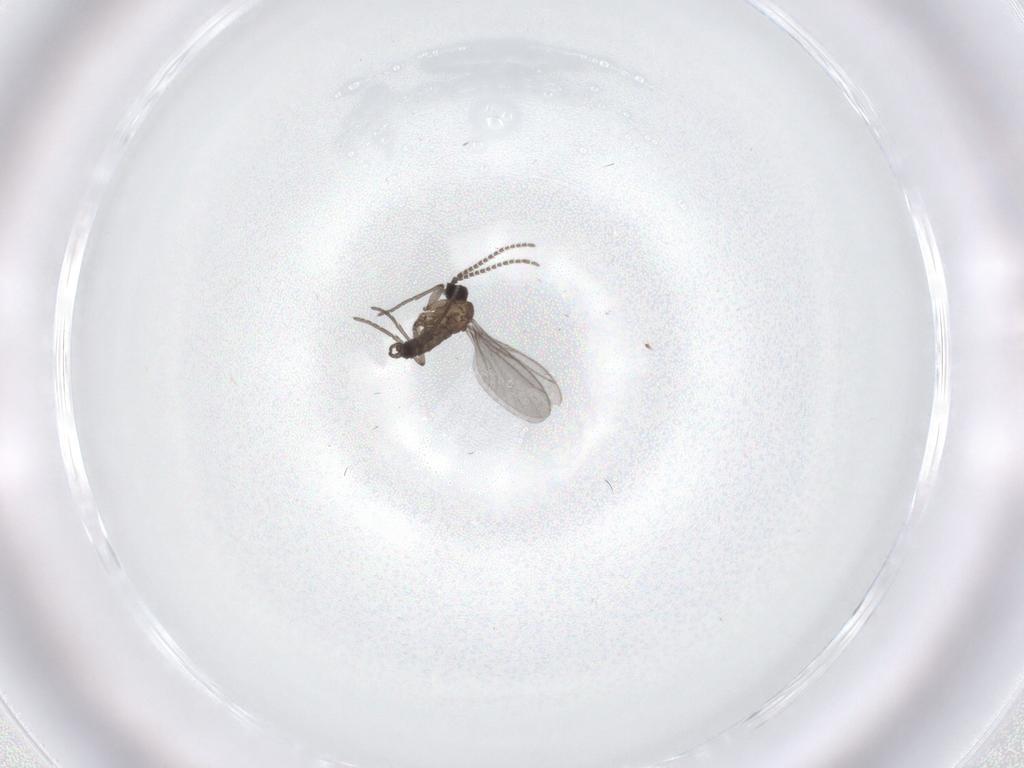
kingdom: Animalia
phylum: Arthropoda
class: Insecta
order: Diptera
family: Sciaridae
